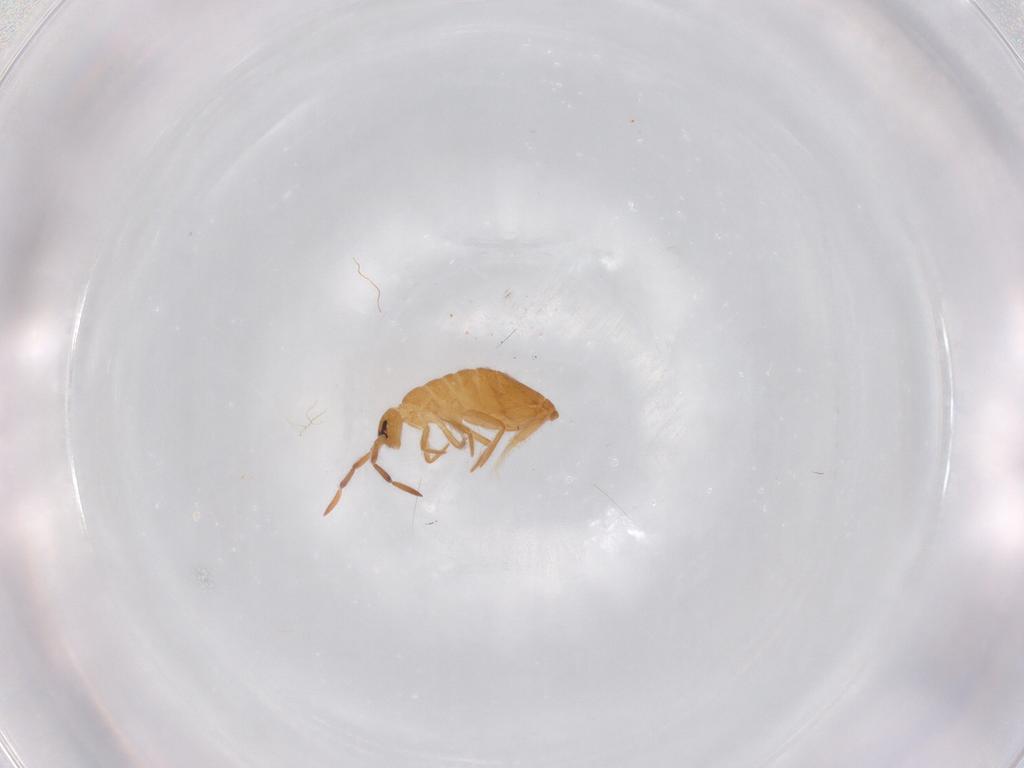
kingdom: Animalia
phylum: Arthropoda
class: Collembola
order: Entomobryomorpha
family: Entomobryidae
